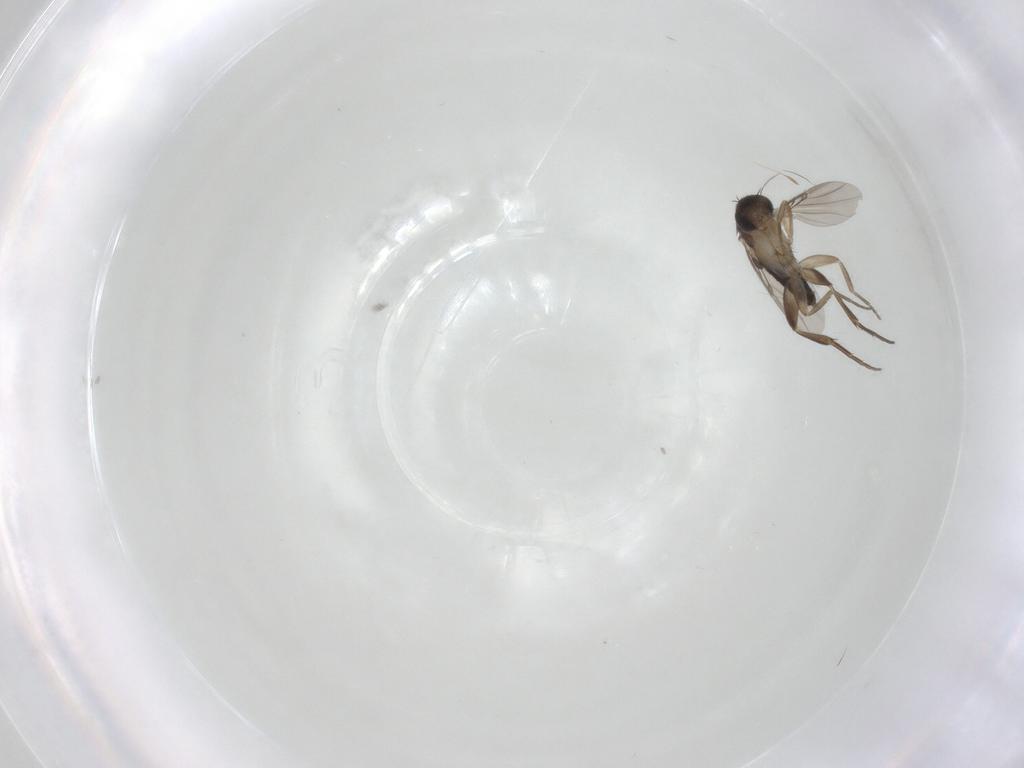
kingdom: Animalia
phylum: Arthropoda
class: Insecta
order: Diptera
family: Phoridae
